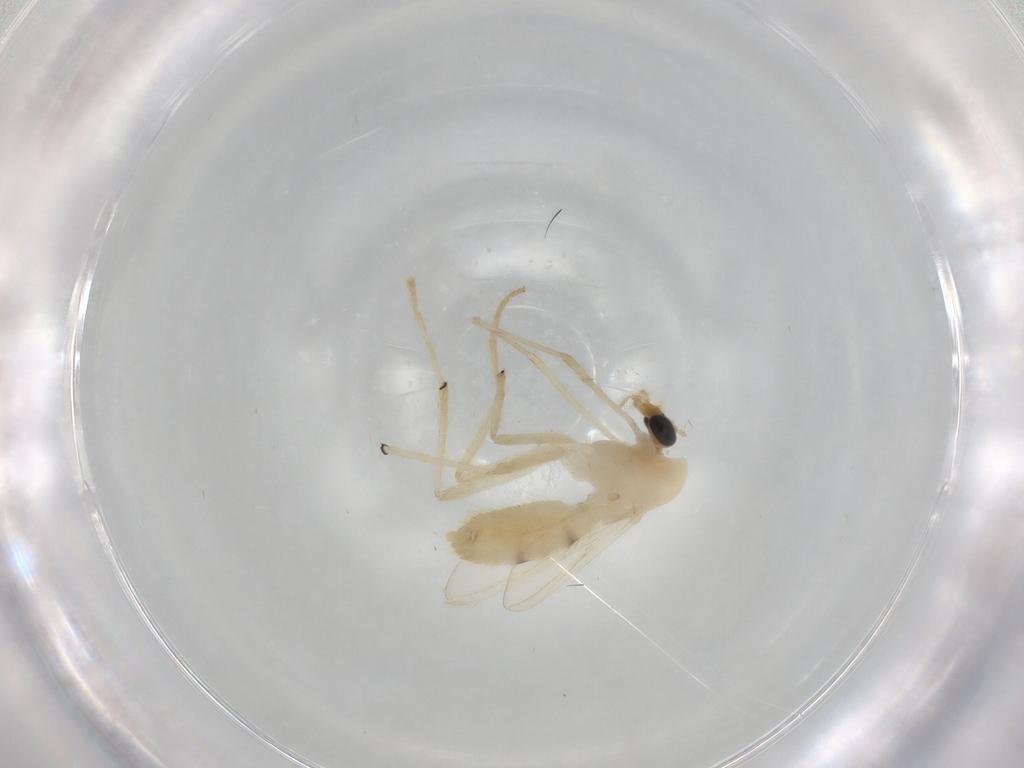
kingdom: Animalia
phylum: Arthropoda
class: Insecta
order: Diptera
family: Chironomidae
